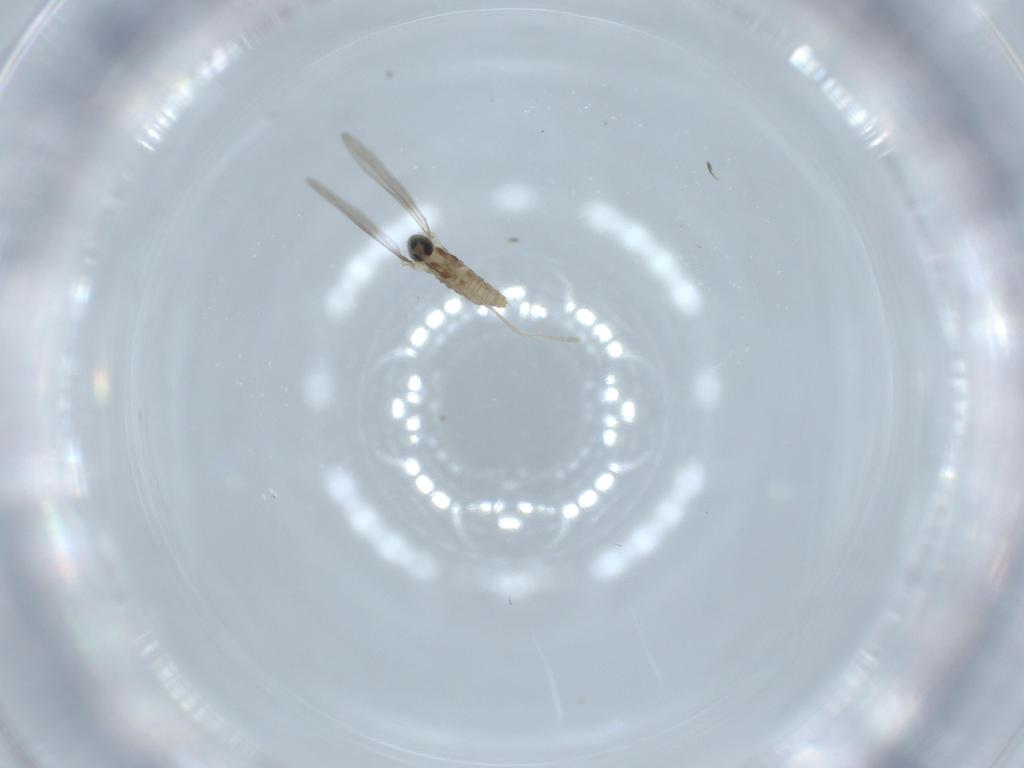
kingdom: Animalia
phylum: Arthropoda
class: Insecta
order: Diptera
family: Cecidomyiidae
